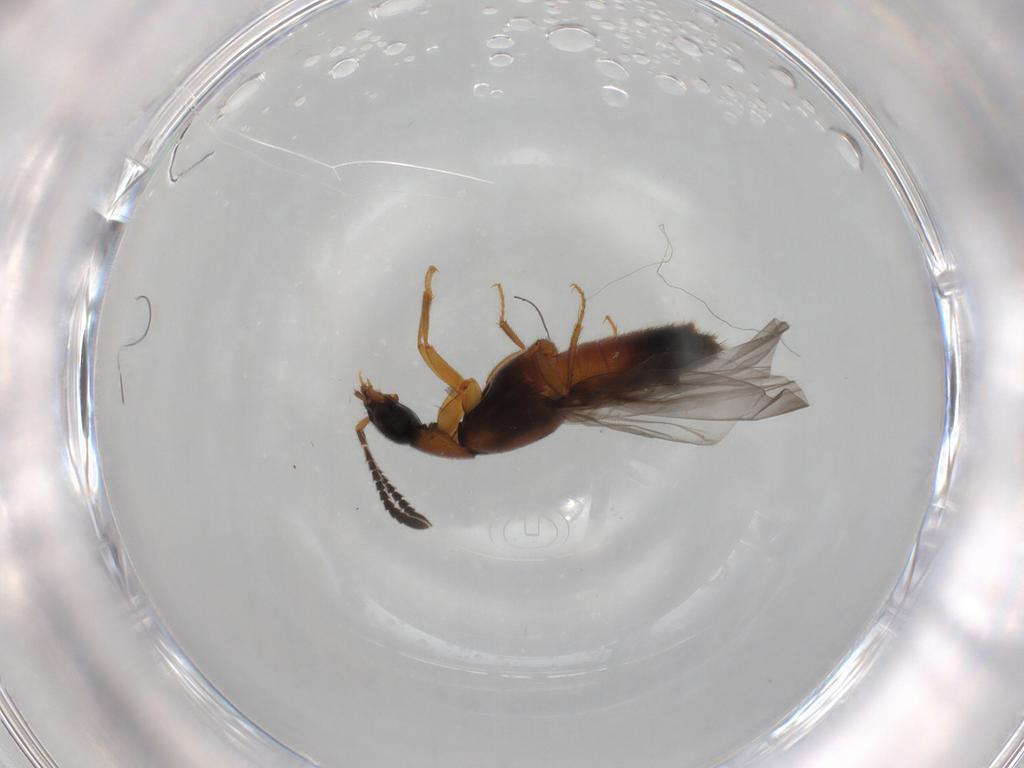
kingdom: Animalia
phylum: Arthropoda
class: Insecta
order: Coleoptera
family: Staphylinidae
